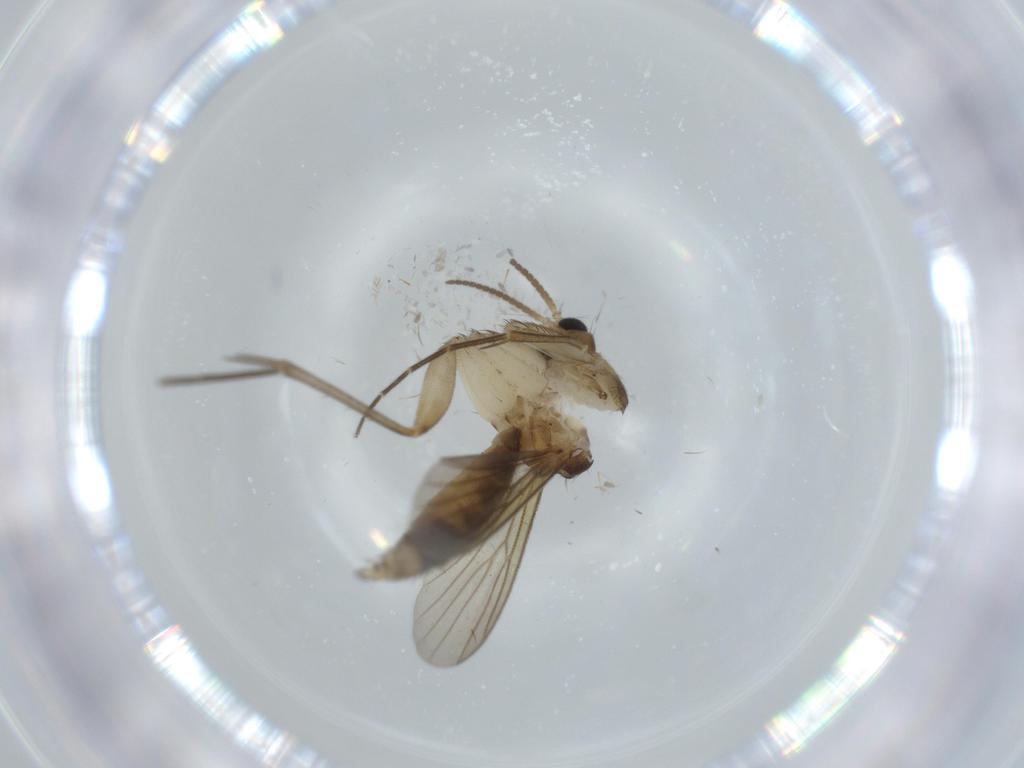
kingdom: Animalia
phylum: Arthropoda
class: Insecta
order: Diptera
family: Mycetophilidae
